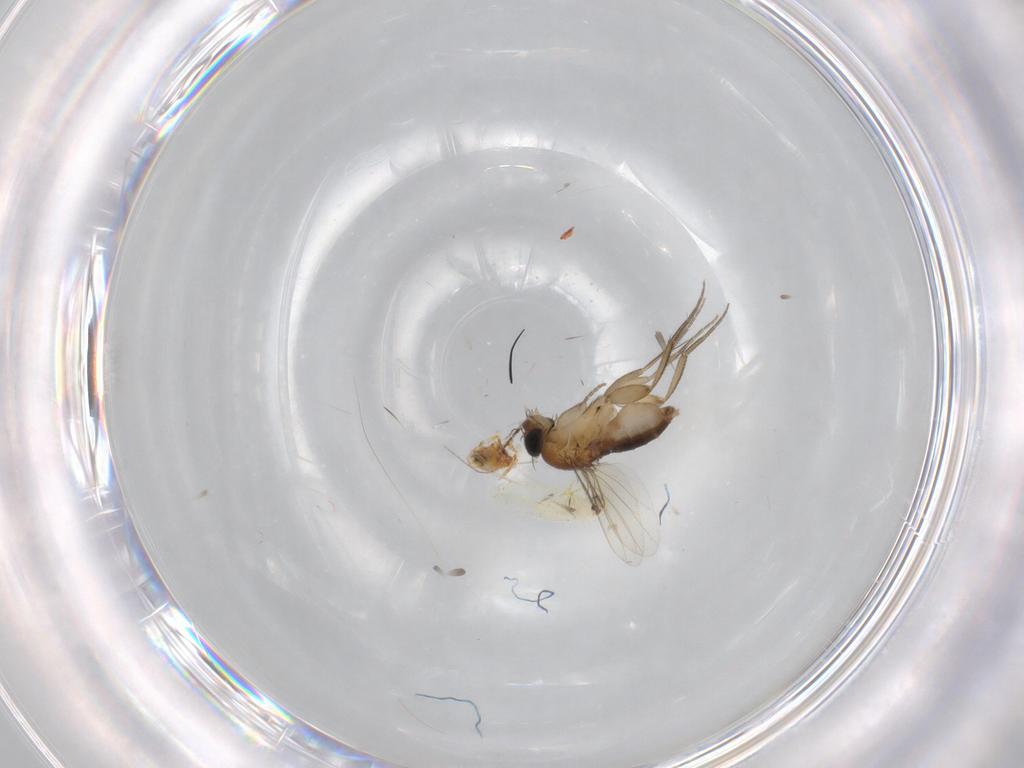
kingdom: Animalia
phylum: Arthropoda
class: Insecta
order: Diptera
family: Phoridae
